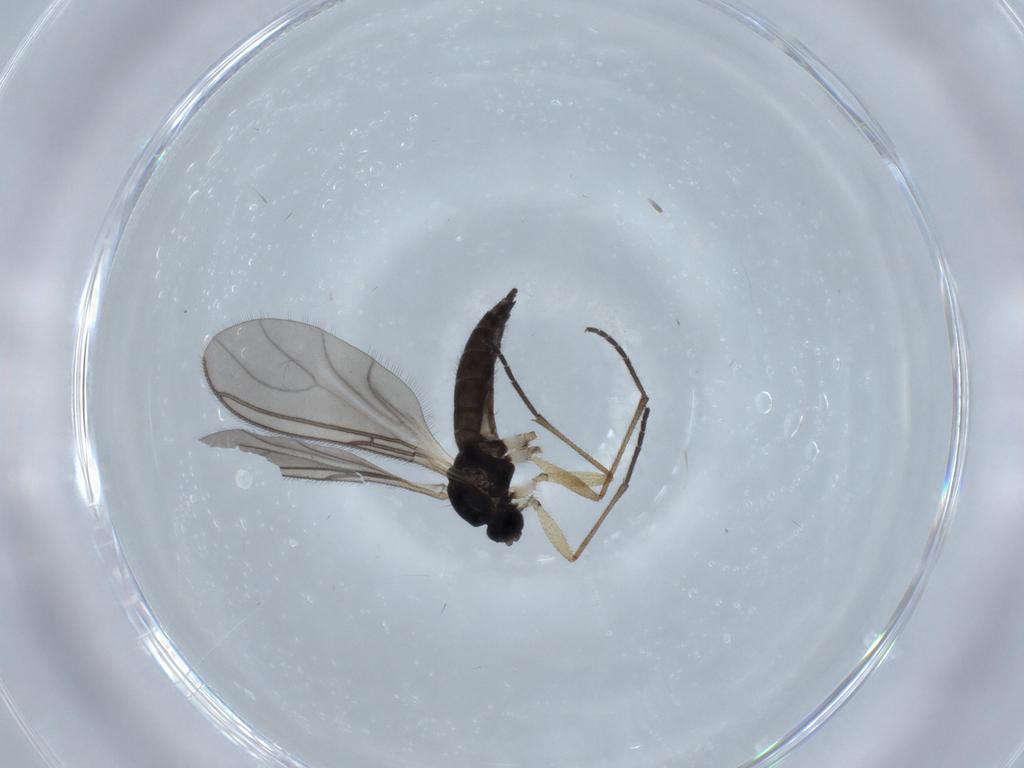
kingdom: Animalia
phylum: Arthropoda
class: Insecta
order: Diptera
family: Sciaridae
